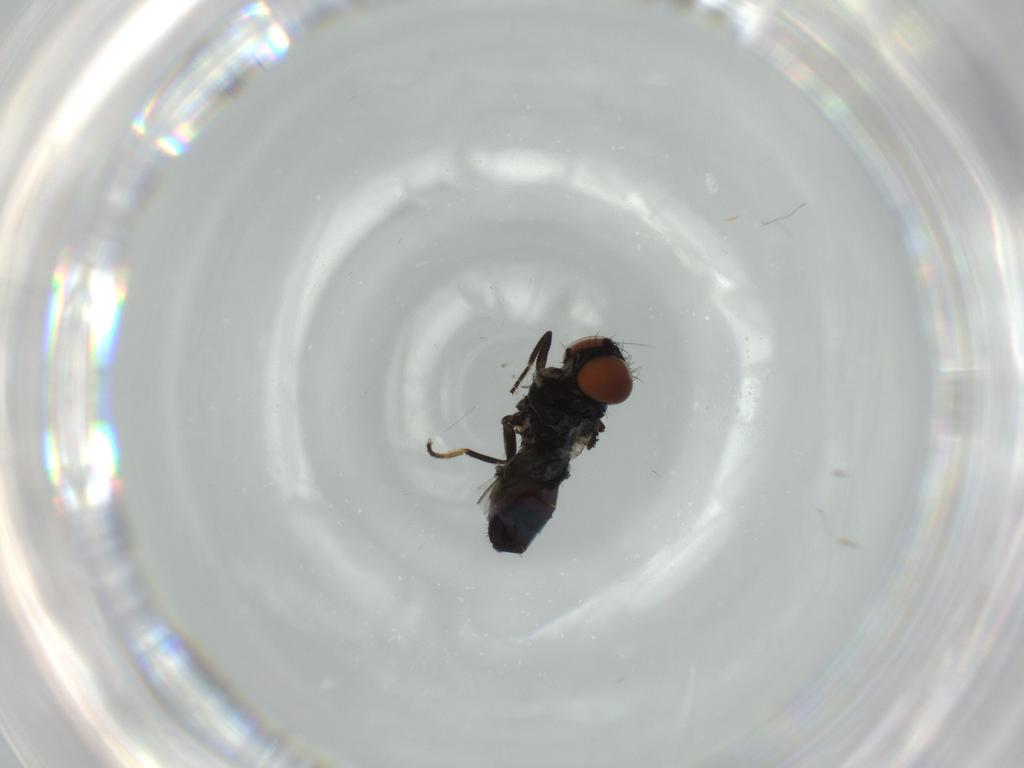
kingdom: Animalia
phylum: Arthropoda
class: Insecta
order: Diptera
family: Milichiidae
